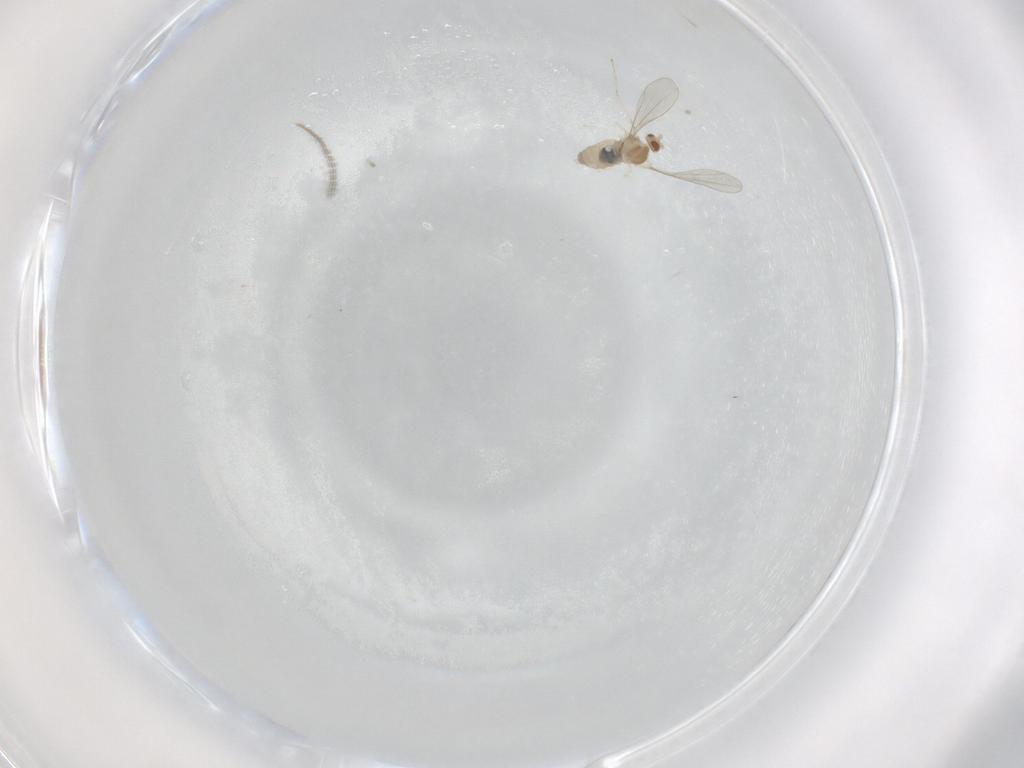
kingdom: Animalia
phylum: Arthropoda
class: Insecta
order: Diptera
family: Cecidomyiidae
